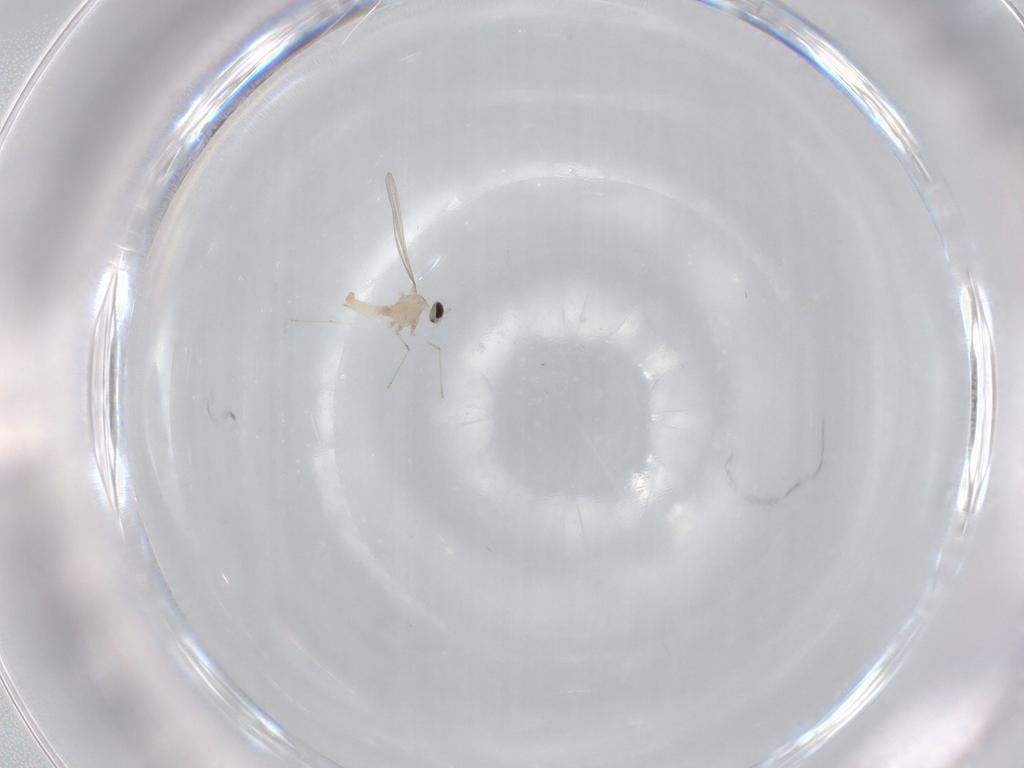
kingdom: Animalia
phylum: Arthropoda
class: Insecta
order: Diptera
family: Cecidomyiidae
